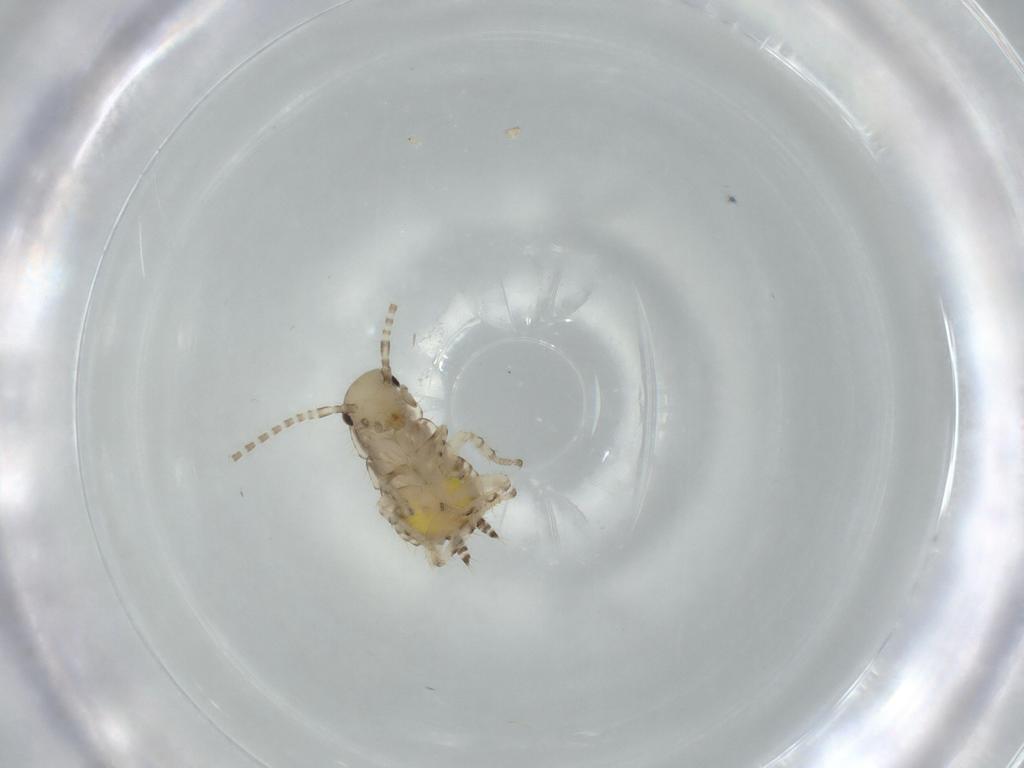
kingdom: Animalia
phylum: Arthropoda
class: Insecta
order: Blattodea
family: Ectobiidae
